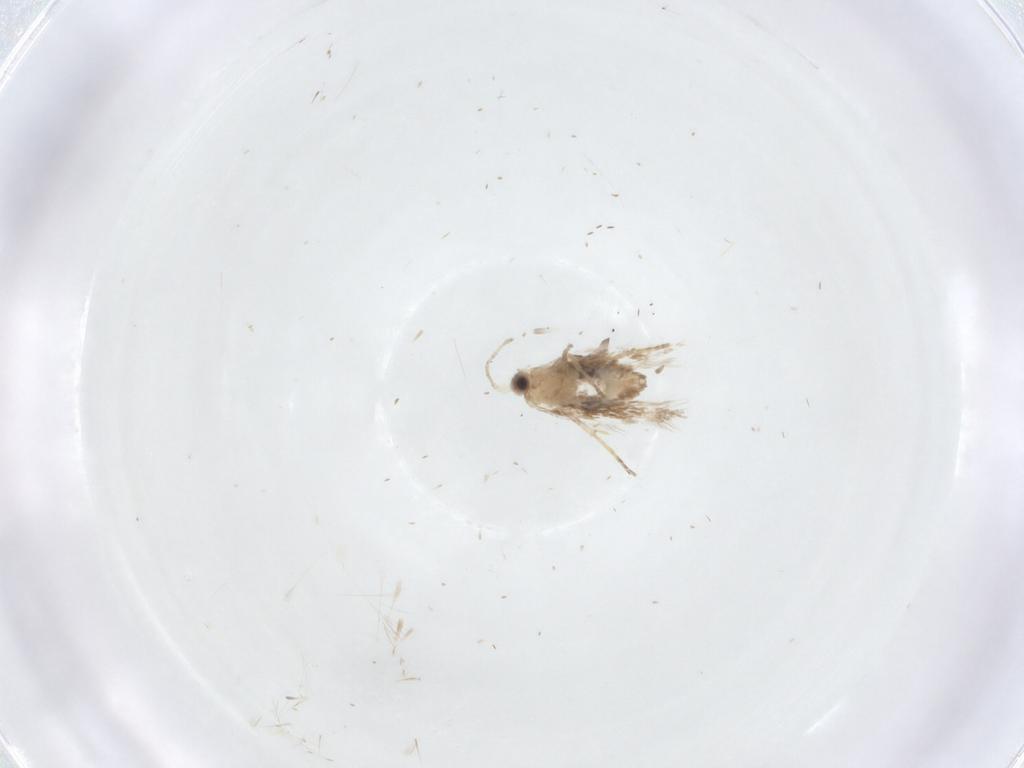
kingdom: Animalia
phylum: Arthropoda
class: Insecta
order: Lepidoptera
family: Nepticulidae
